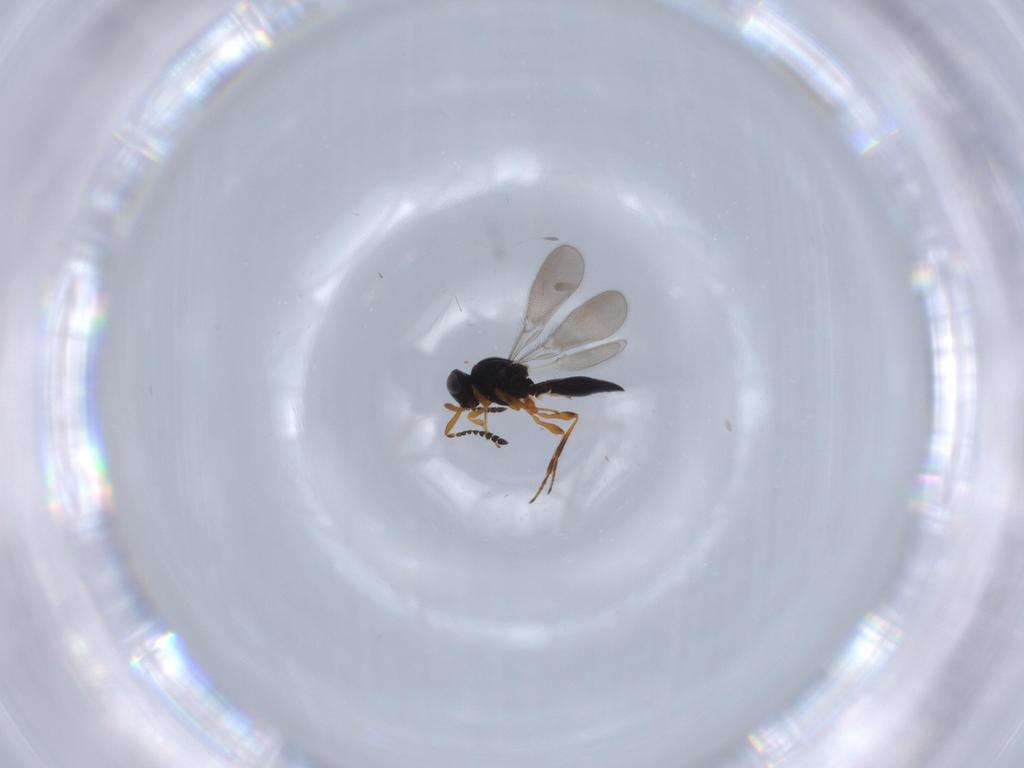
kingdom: Animalia
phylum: Arthropoda
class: Insecta
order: Hymenoptera
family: Platygastridae
